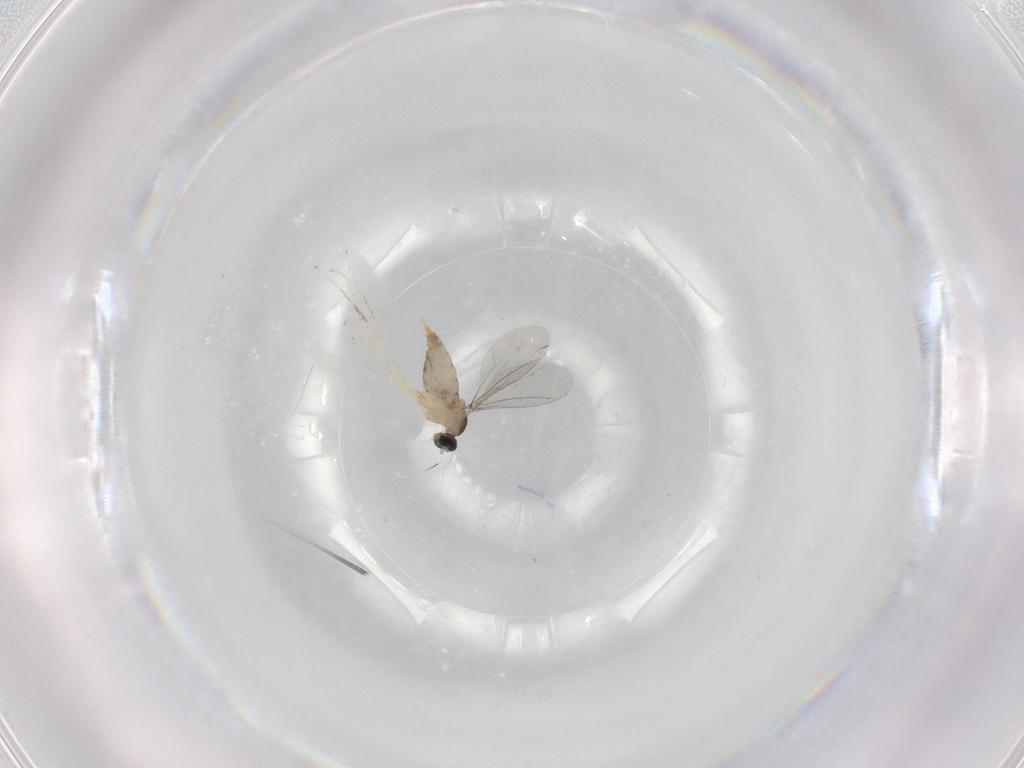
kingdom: Animalia
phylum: Arthropoda
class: Insecta
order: Diptera
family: Cecidomyiidae
